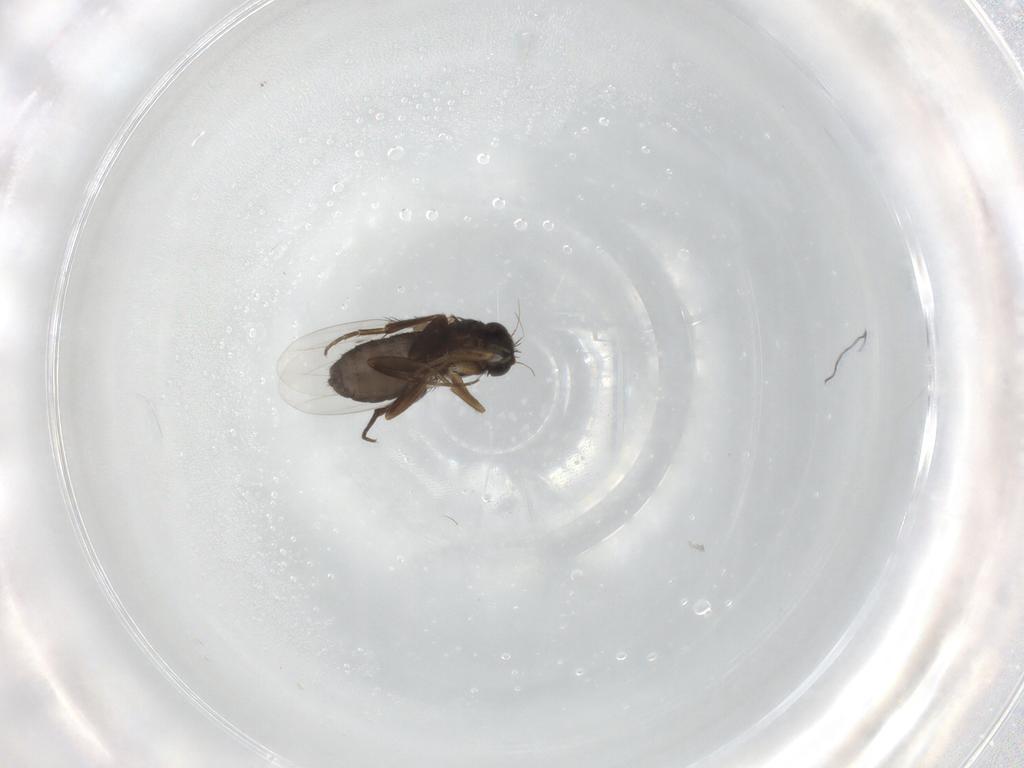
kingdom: Animalia
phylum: Arthropoda
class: Insecta
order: Diptera
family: Phoridae
